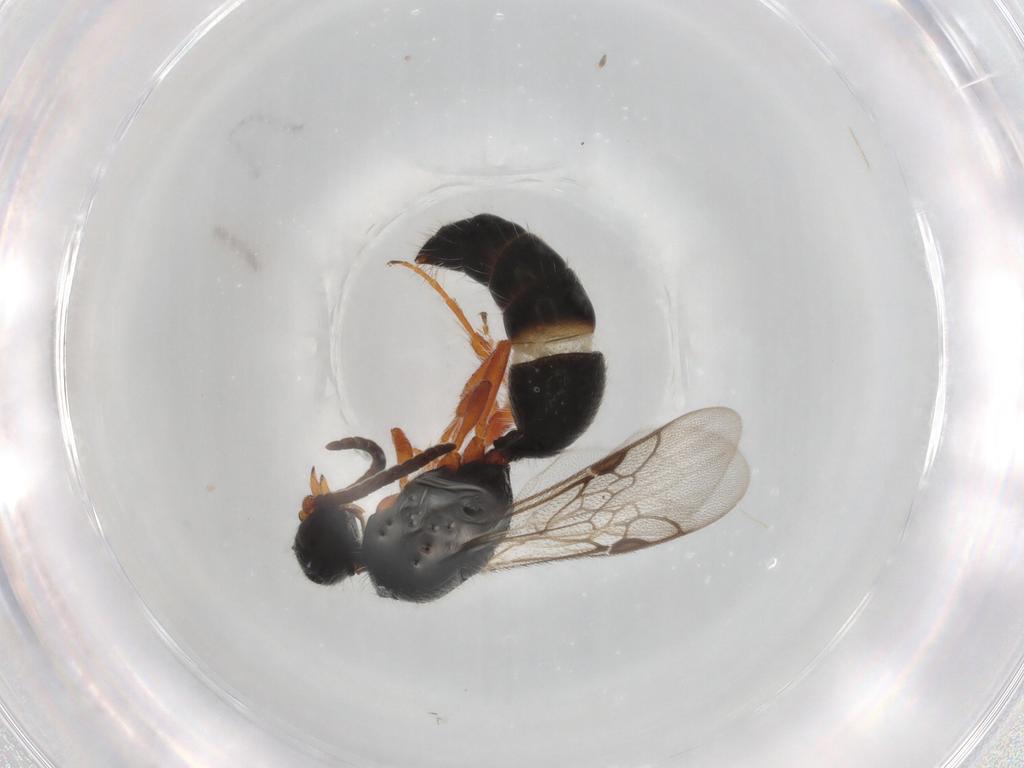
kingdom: Animalia
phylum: Arthropoda
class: Insecta
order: Hymenoptera
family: Mutillidae
